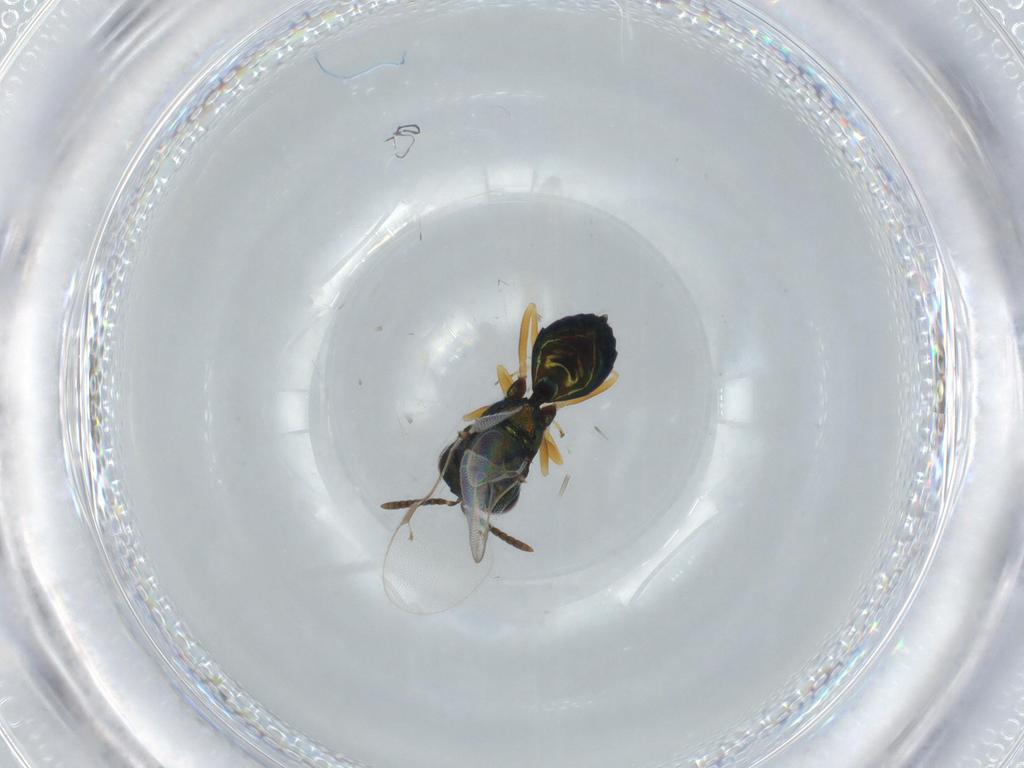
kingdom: Animalia
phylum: Arthropoda
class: Insecta
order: Hymenoptera
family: Pteromalidae
